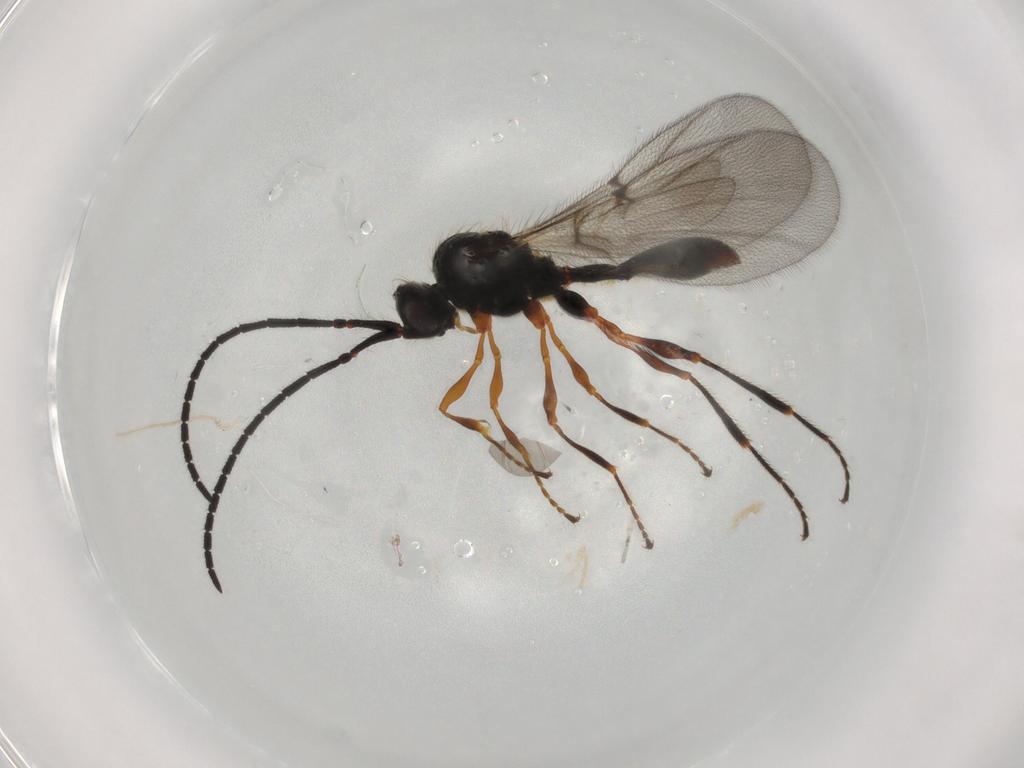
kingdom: Animalia
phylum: Arthropoda
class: Insecta
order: Hymenoptera
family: Diapriidae
